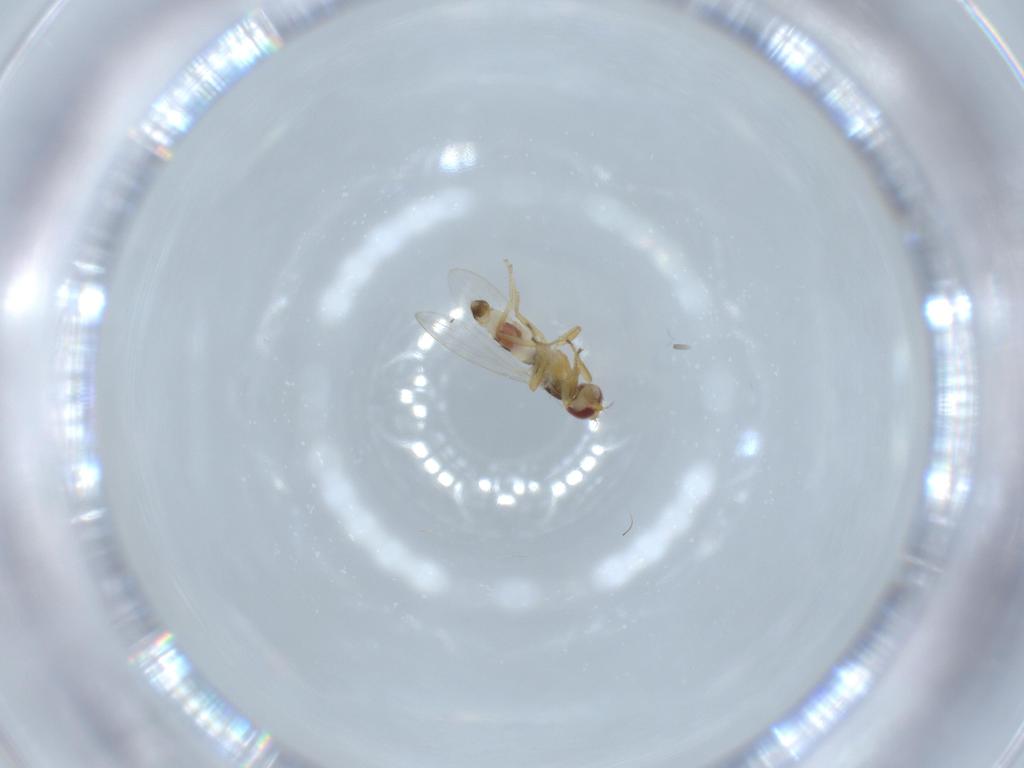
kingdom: Animalia
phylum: Arthropoda
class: Insecta
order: Diptera
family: Periscelididae
